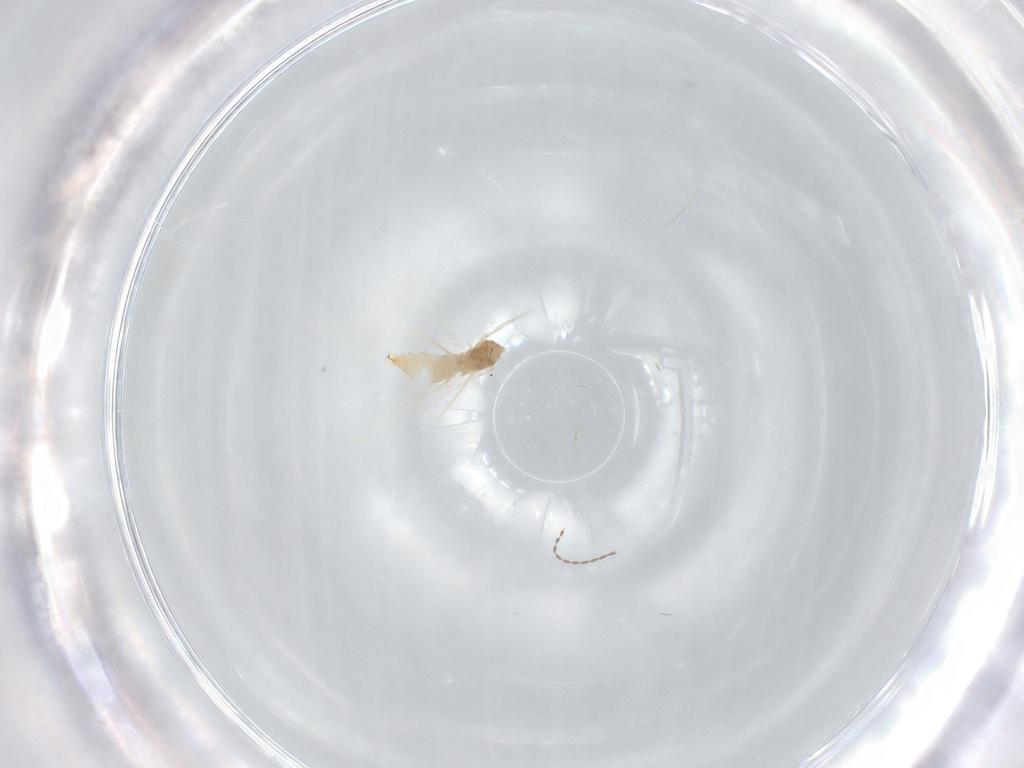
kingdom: Animalia
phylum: Arthropoda
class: Insecta
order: Diptera
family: Cecidomyiidae
